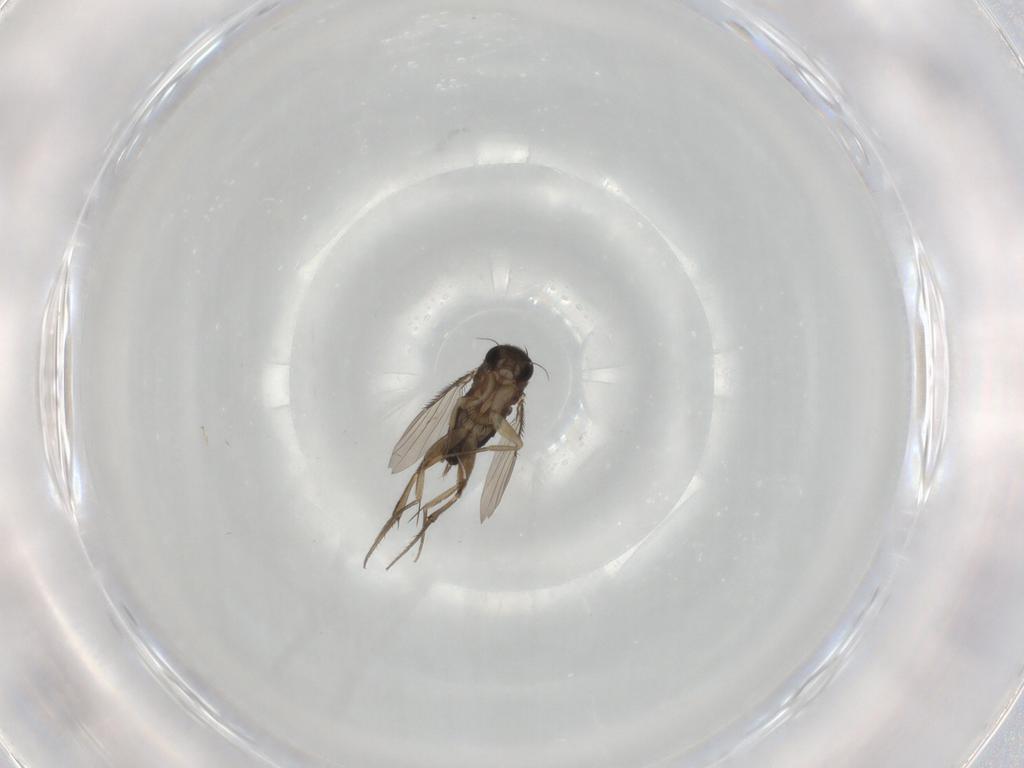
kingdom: Animalia
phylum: Arthropoda
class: Insecta
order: Diptera
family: Phoridae
